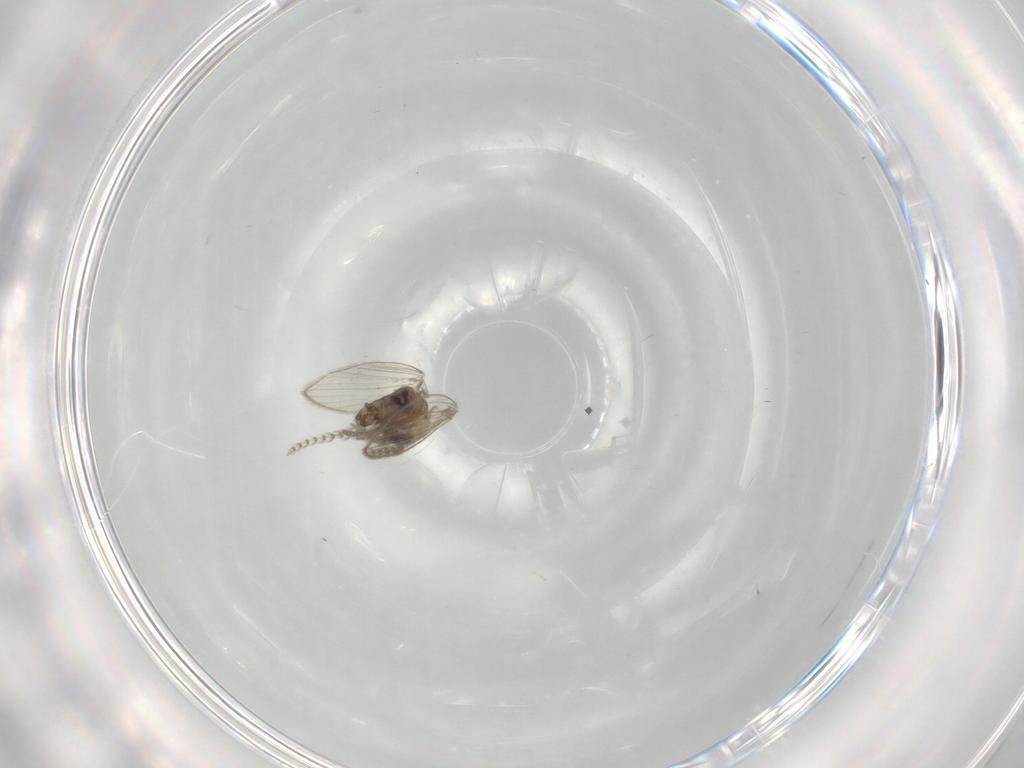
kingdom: Animalia
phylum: Arthropoda
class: Insecta
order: Diptera
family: Psychodidae
